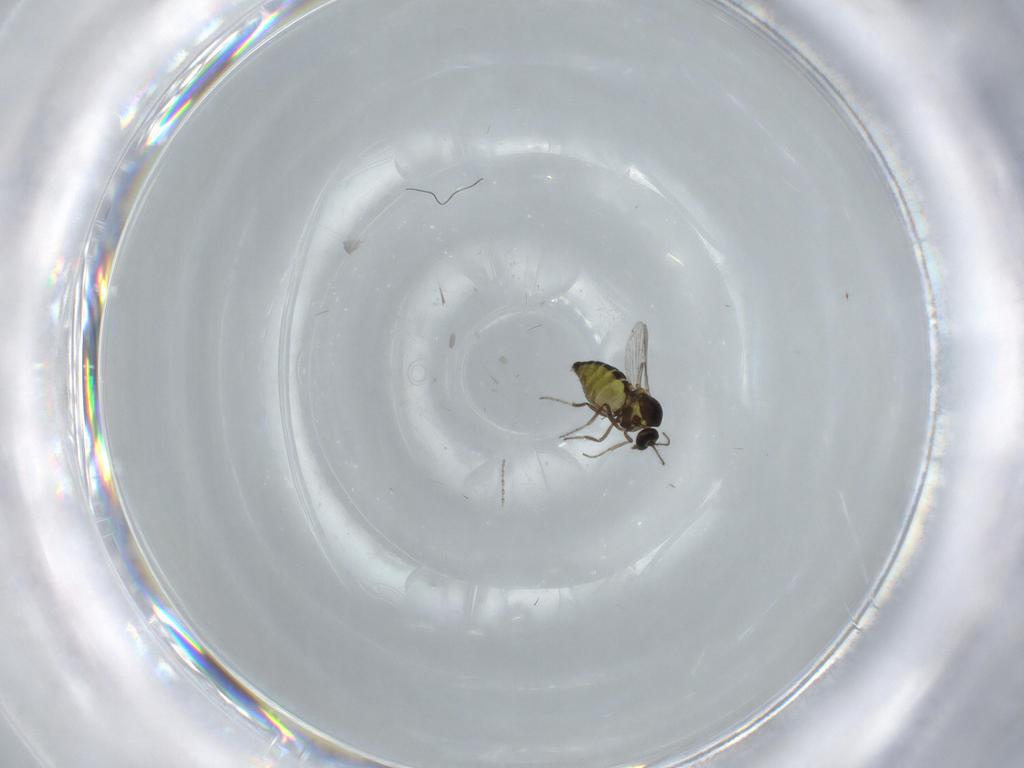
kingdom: Animalia
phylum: Arthropoda
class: Insecta
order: Diptera
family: Ceratopogonidae
